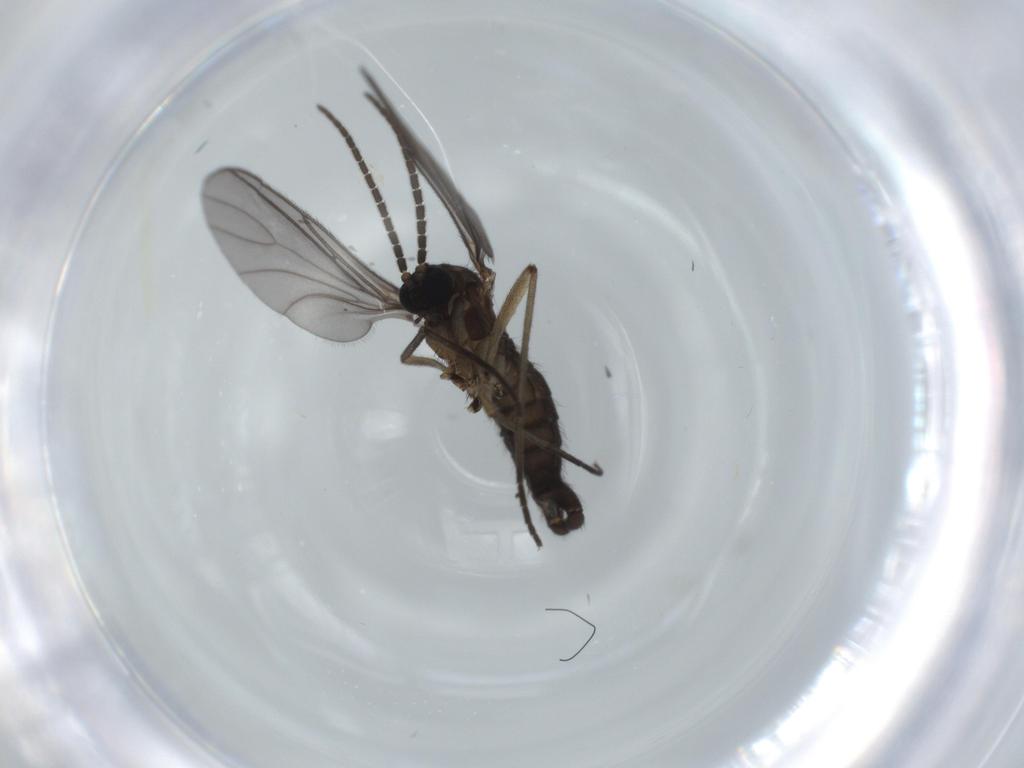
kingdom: Animalia
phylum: Arthropoda
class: Insecta
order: Diptera
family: Sciaridae
